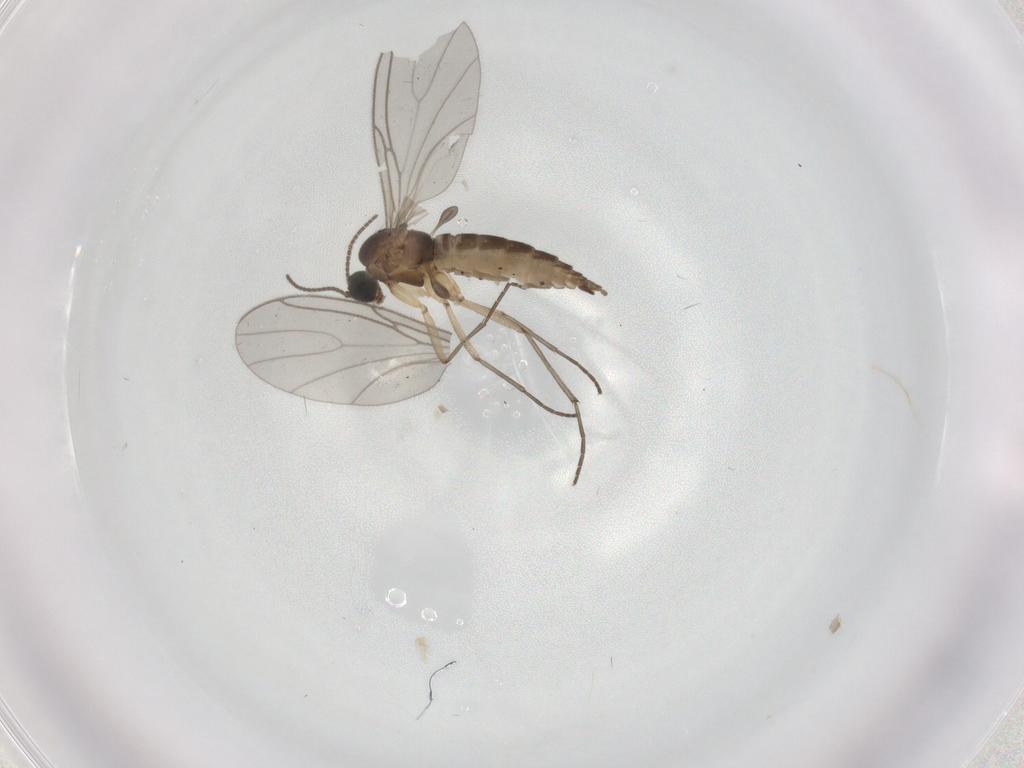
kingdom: Animalia
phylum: Arthropoda
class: Insecta
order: Diptera
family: Sciaridae
